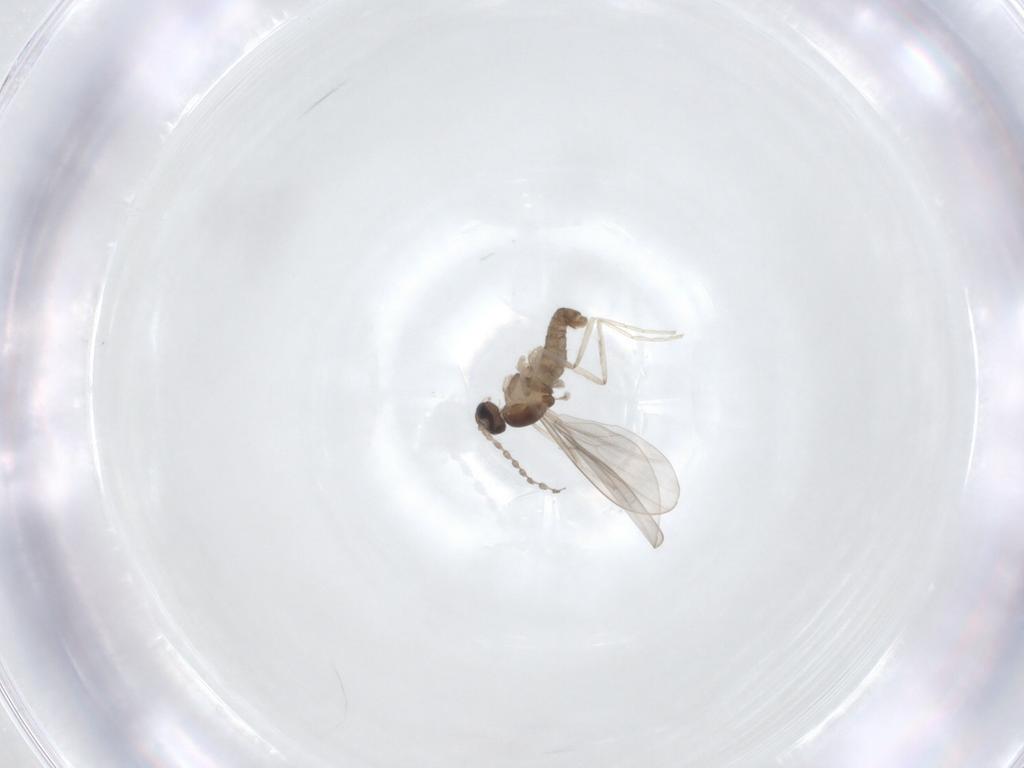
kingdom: Animalia
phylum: Arthropoda
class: Insecta
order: Diptera
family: Cecidomyiidae
